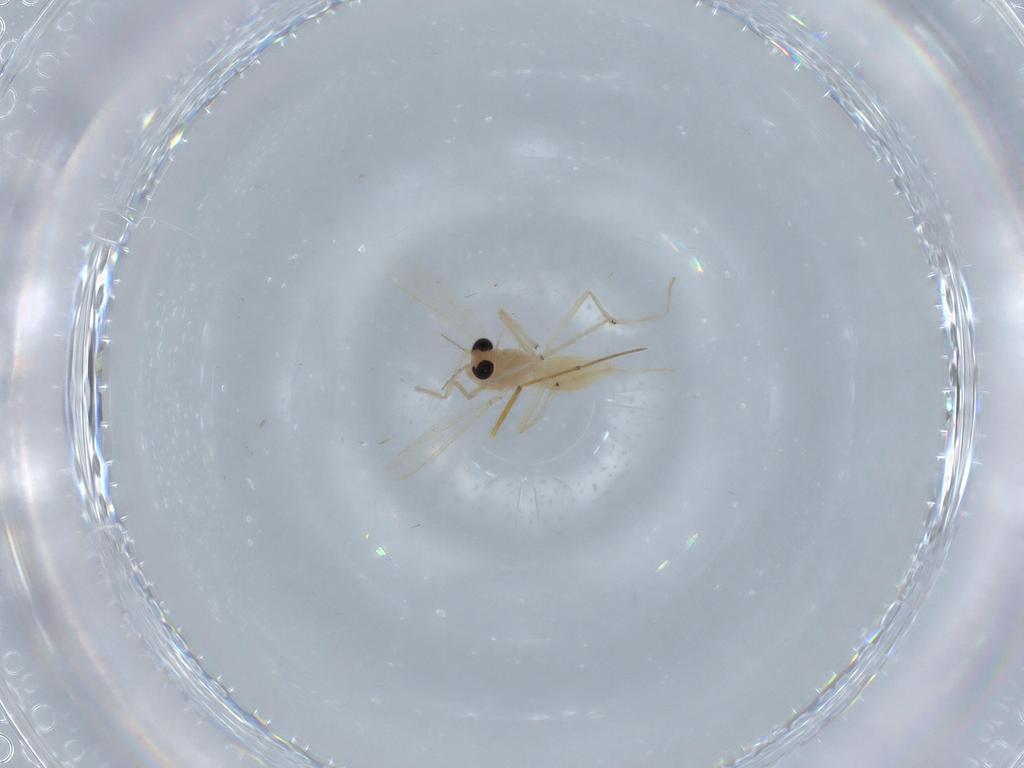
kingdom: Animalia
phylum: Arthropoda
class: Insecta
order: Diptera
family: Cecidomyiidae
